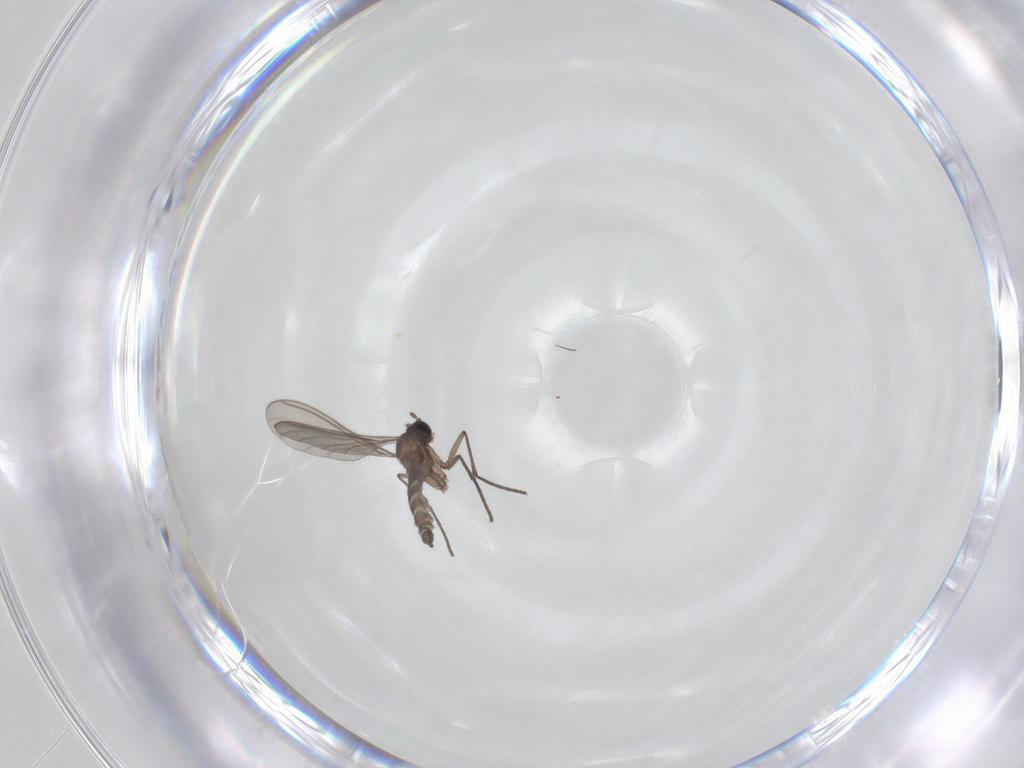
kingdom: Animalia
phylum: Arthropoda
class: Insecta
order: Diptera
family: Sciaridae
